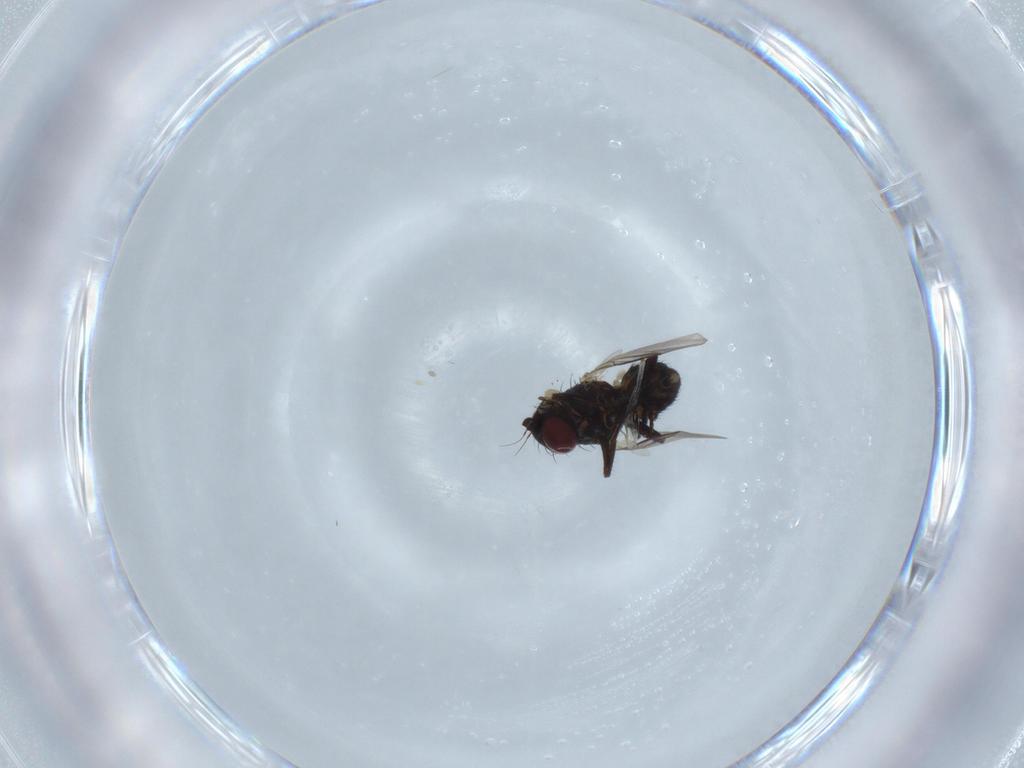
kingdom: Animalia
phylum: Arthropoda
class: Insecta
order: Diptera
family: Ceratopogonidae
